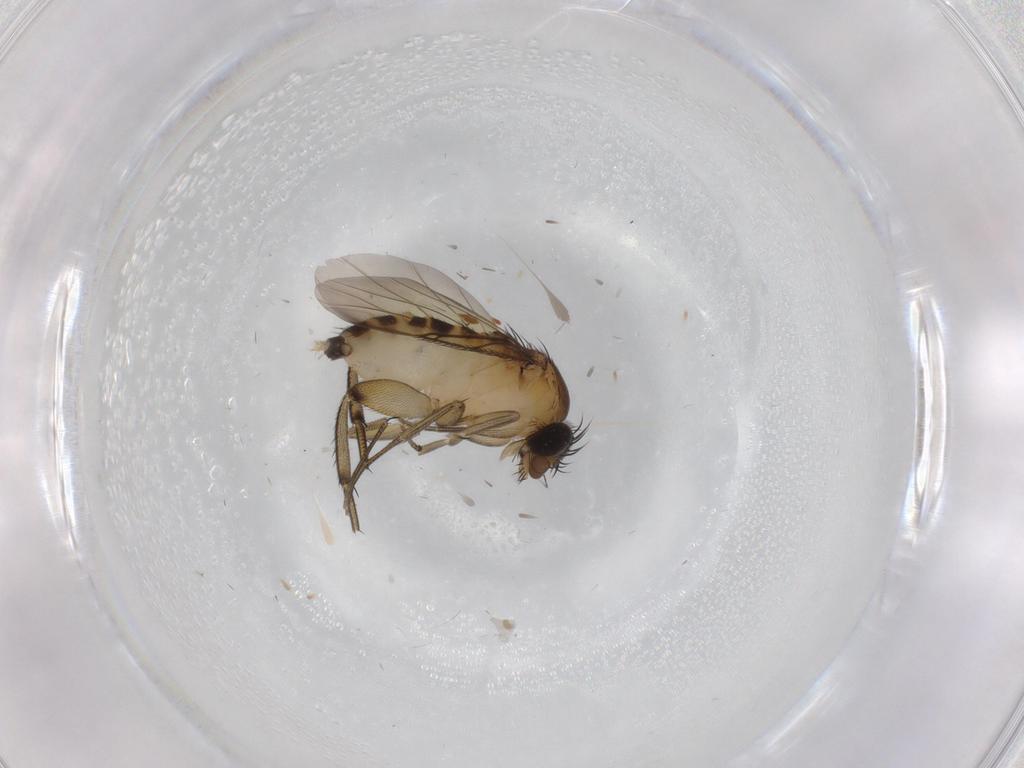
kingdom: Animalia
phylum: Arthropoda
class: Insecta
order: Diptera
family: Phoridae
